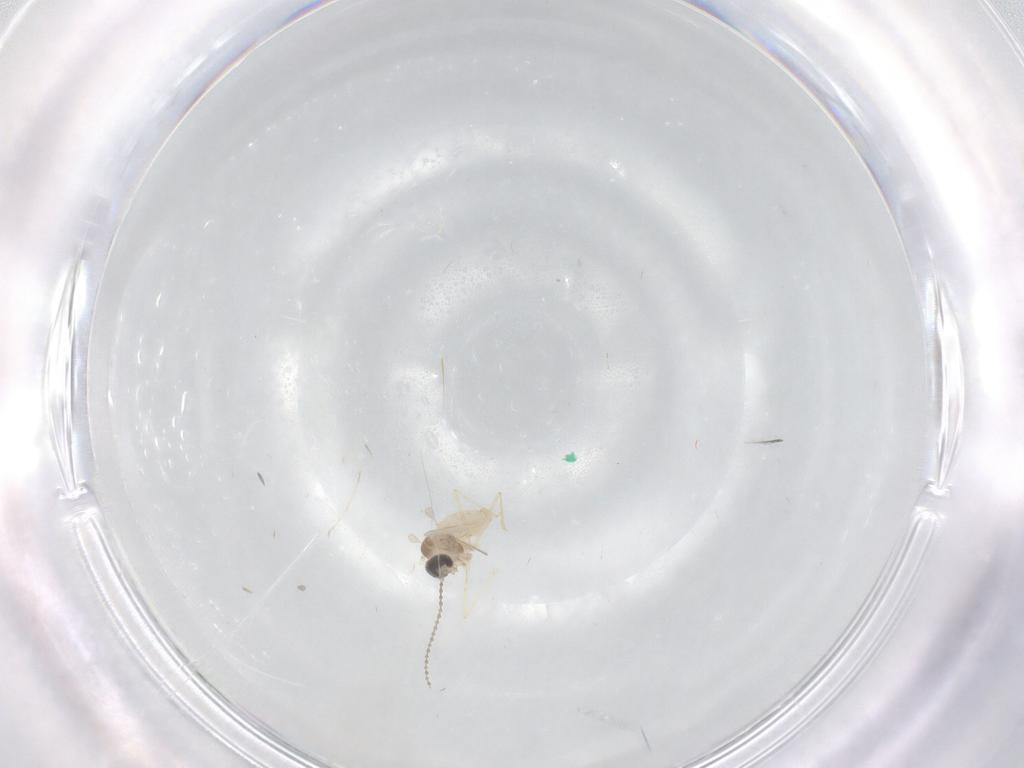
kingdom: Animalia
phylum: Arthropoda
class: Insecta
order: Diptera
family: Cecidomyiidae
